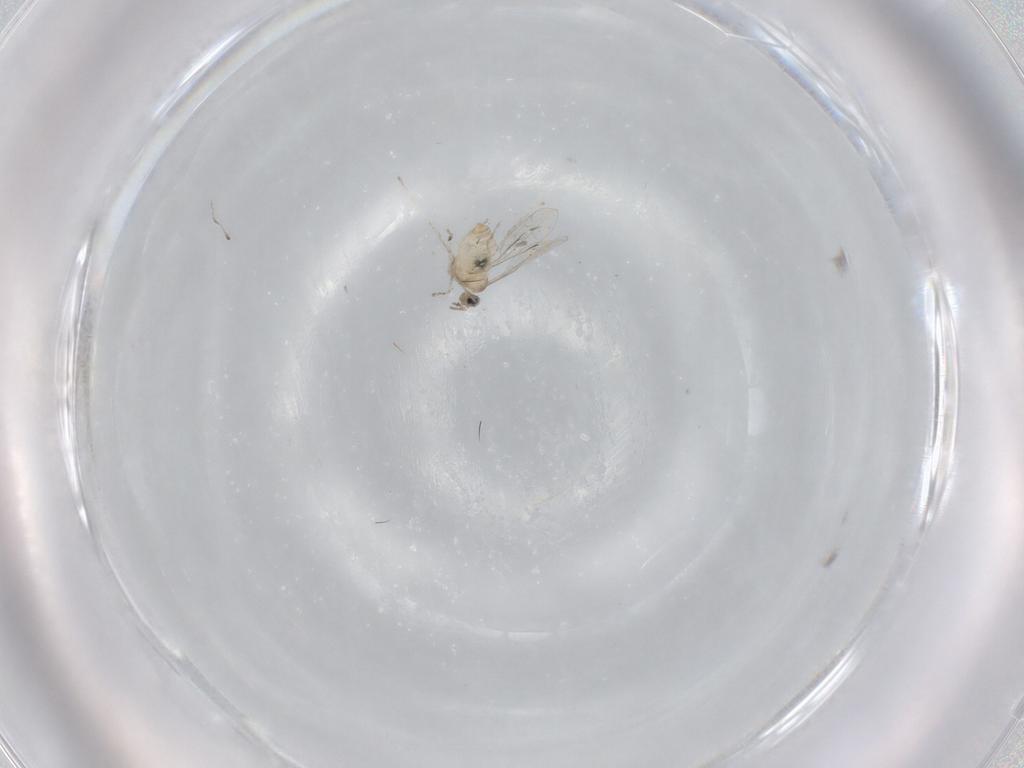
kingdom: Animalia
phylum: Arthropoda
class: Insecta
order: Diptera
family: Cecidomyiidae
